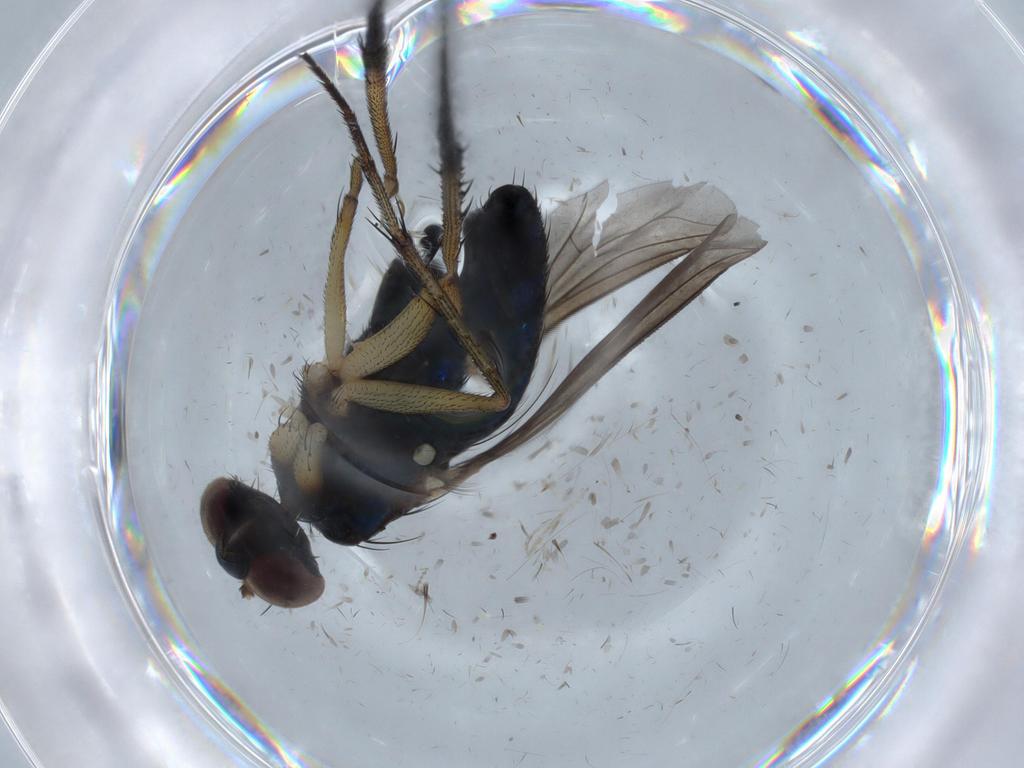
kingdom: Animalia
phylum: Arthropoda
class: Insecta
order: Diptera
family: Chironomidae
